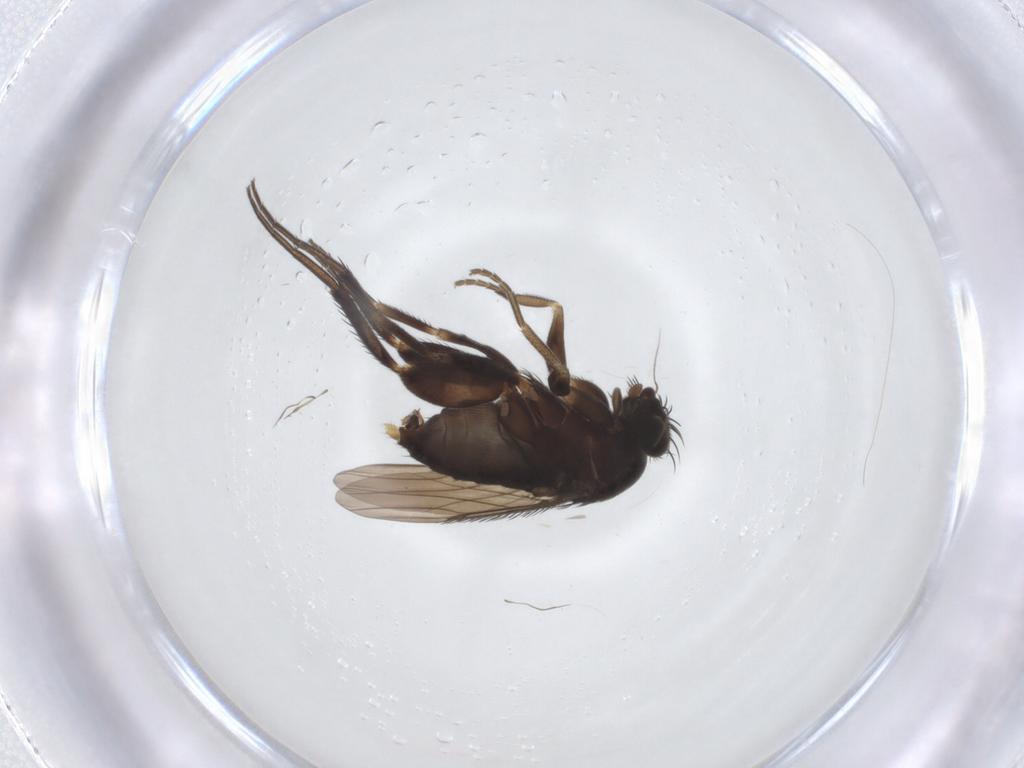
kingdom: Animalia
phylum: Arthropoda
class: Insecta
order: Diptera
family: Phoridae
